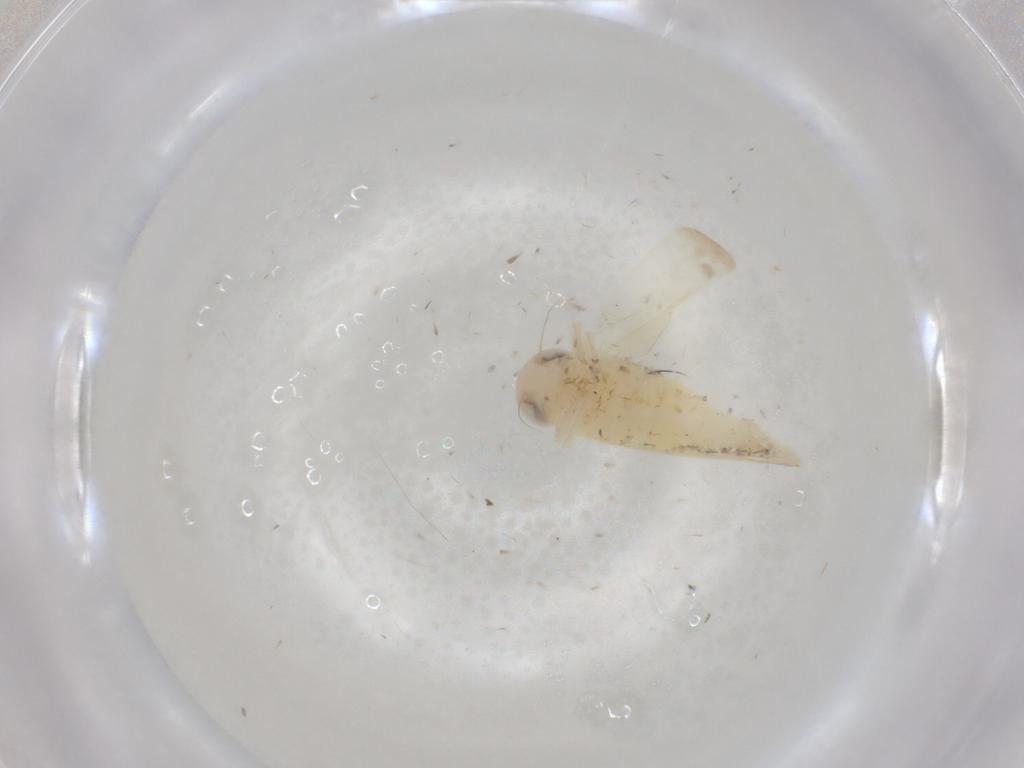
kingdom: Animalia
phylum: Arthropoda
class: Insecta
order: Hemiptera
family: Cicadellidae
